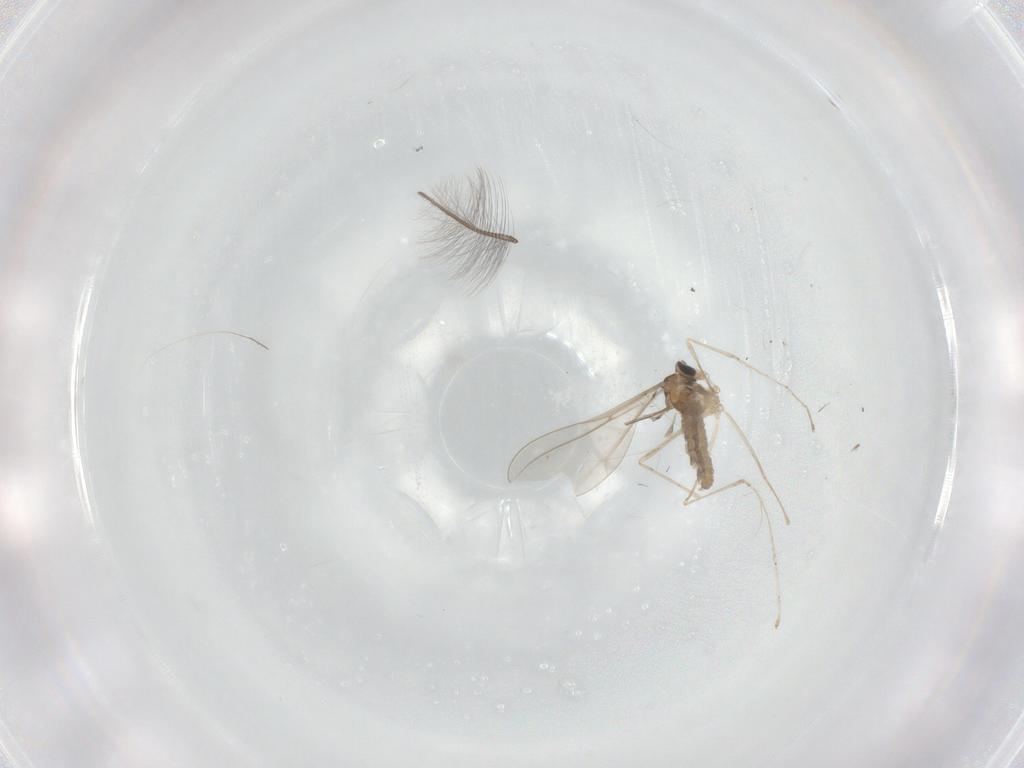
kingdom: Animalia
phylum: Arthropoda
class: Insecta
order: Diptera
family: Cecidomyiidae
